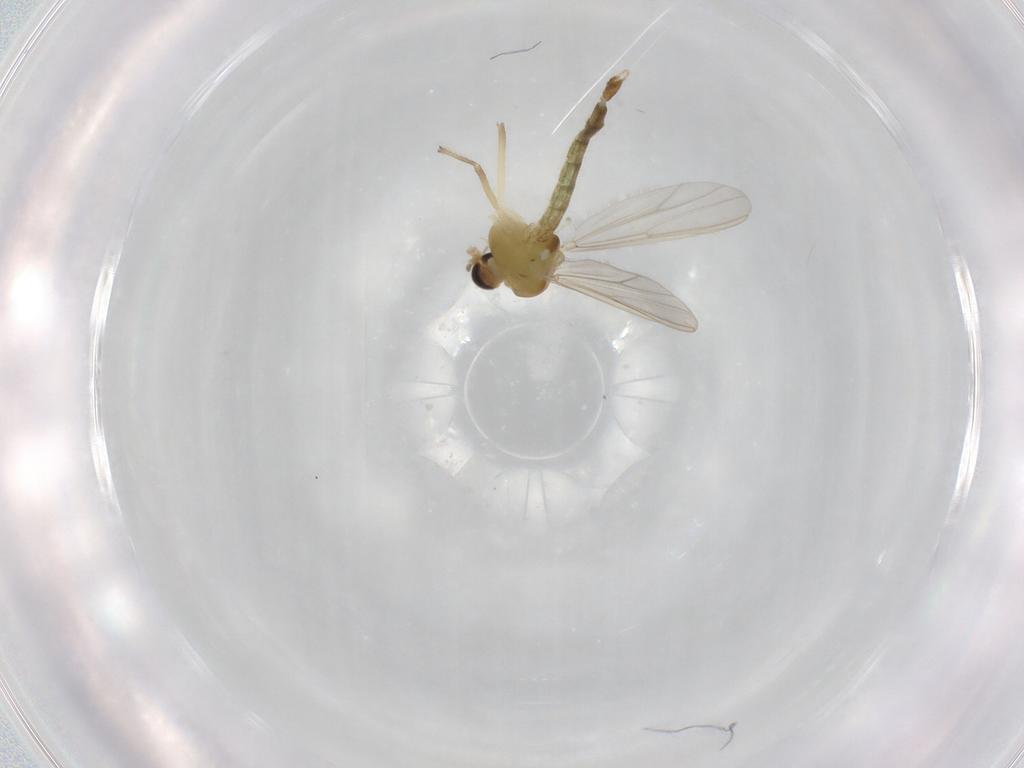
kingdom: Animalia
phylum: Arthropoda
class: Insecta
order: Diptera
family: Chironomidae
